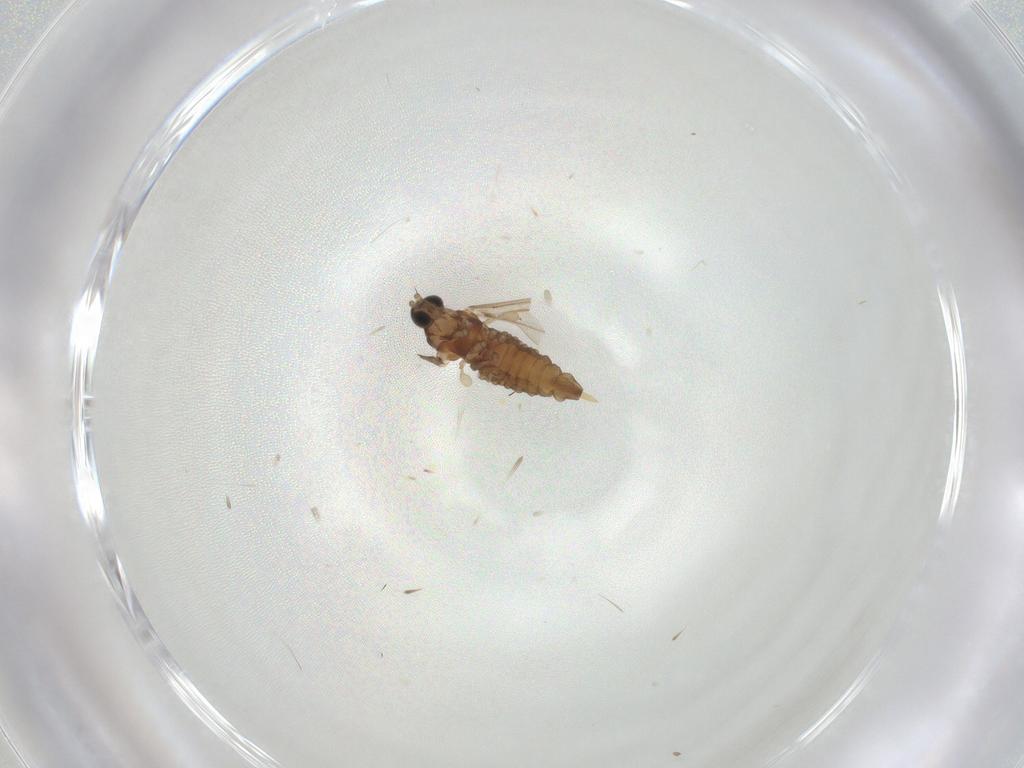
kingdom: Animalia
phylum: Arthropoda
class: Insecta
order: Diptera
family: Cecidomyiidae
